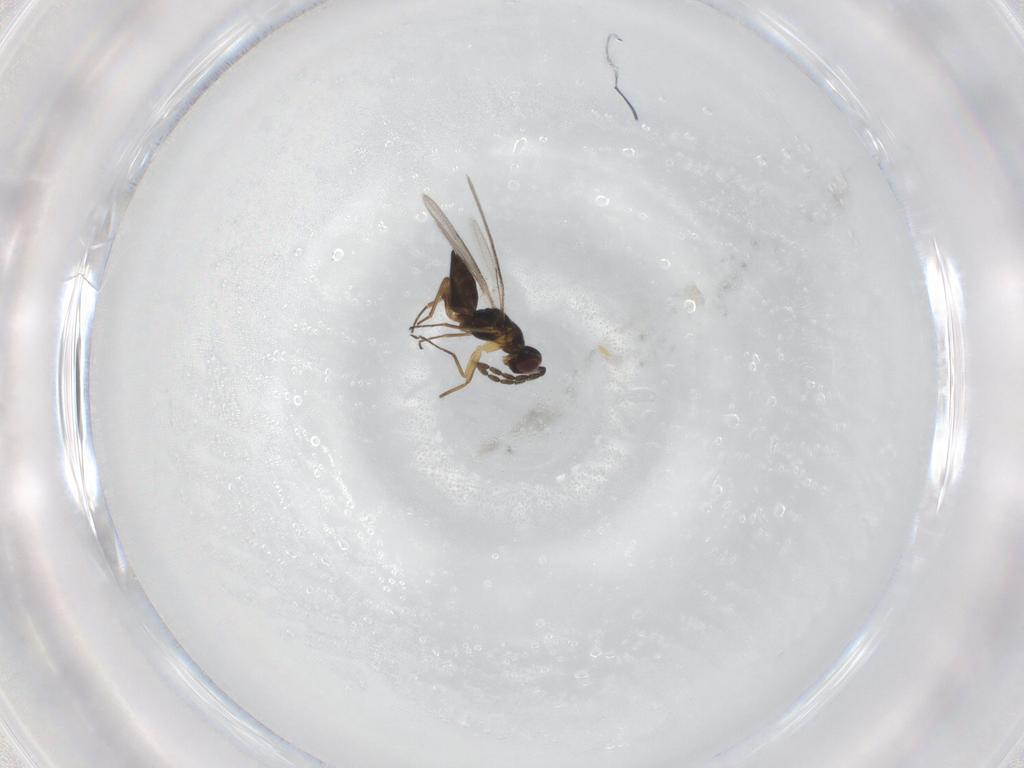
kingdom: Animalia
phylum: Arthropoda
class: Insecta
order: Hymenoptera
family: Eulophidae
